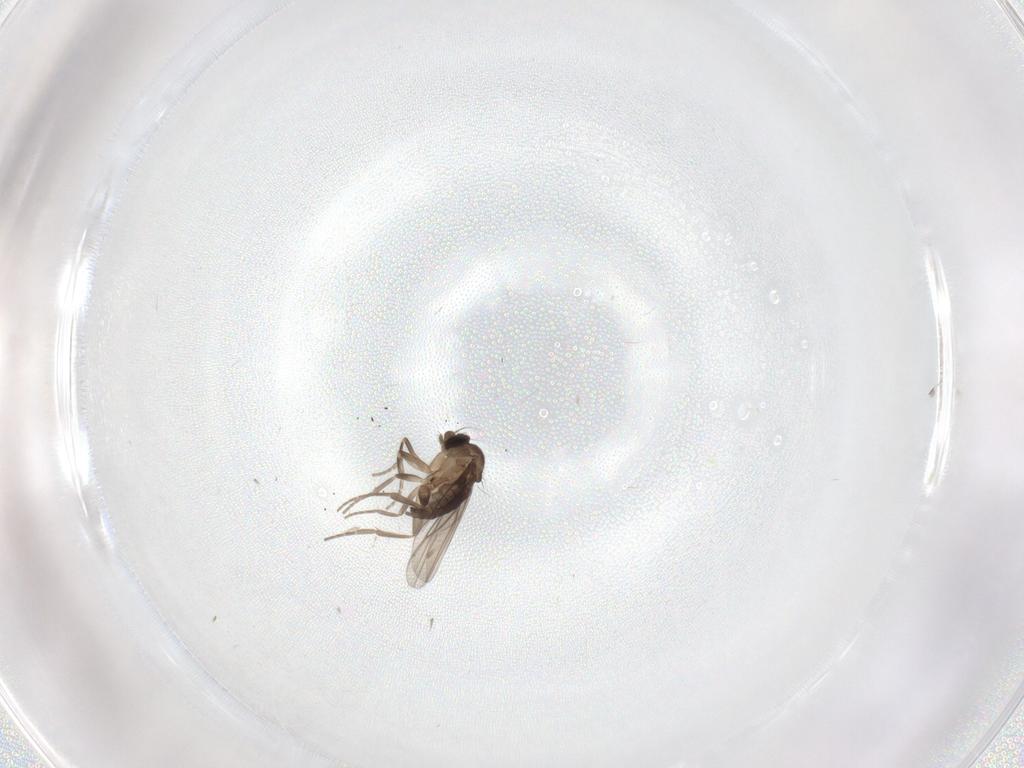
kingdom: Animalia
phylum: Arthropoda
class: Insecta
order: Diptera
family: Phoridae
